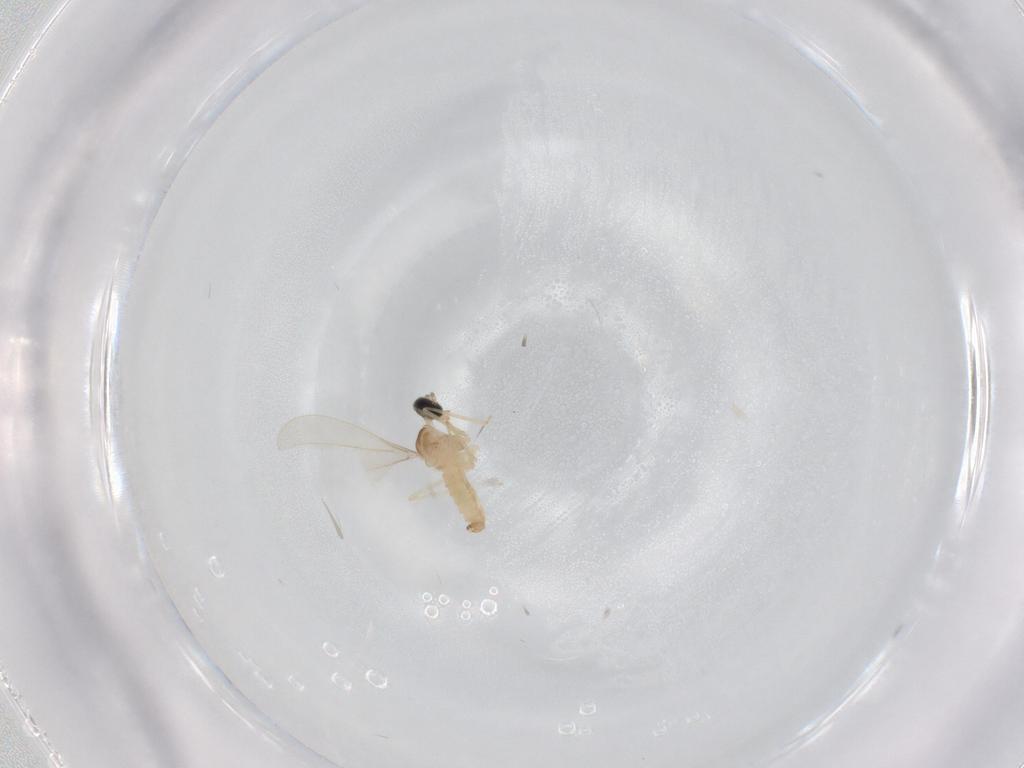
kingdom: Animalia
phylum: Arthropoda
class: Insecta
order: Diptera
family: Cecidomyiidae
